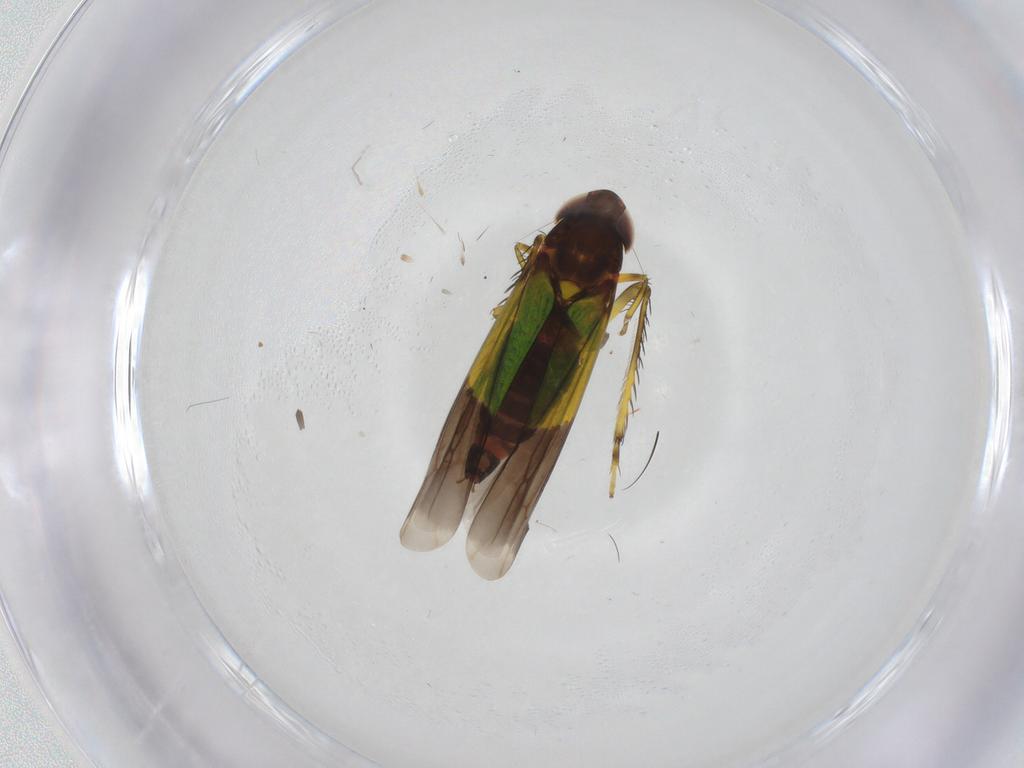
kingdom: Animalia
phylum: Arthropoda
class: Insecta
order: Hemiptera
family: Cicadellidae
